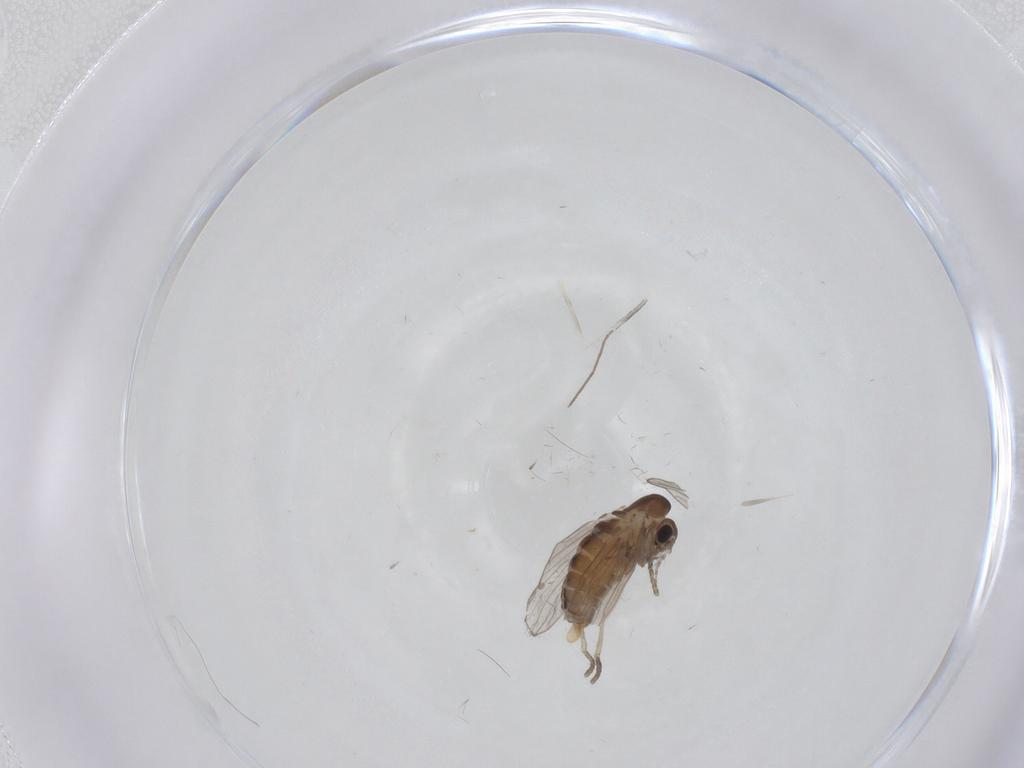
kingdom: Animalia
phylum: Arthropoda
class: Insecta
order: Diptera
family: Cecidomyiidae
